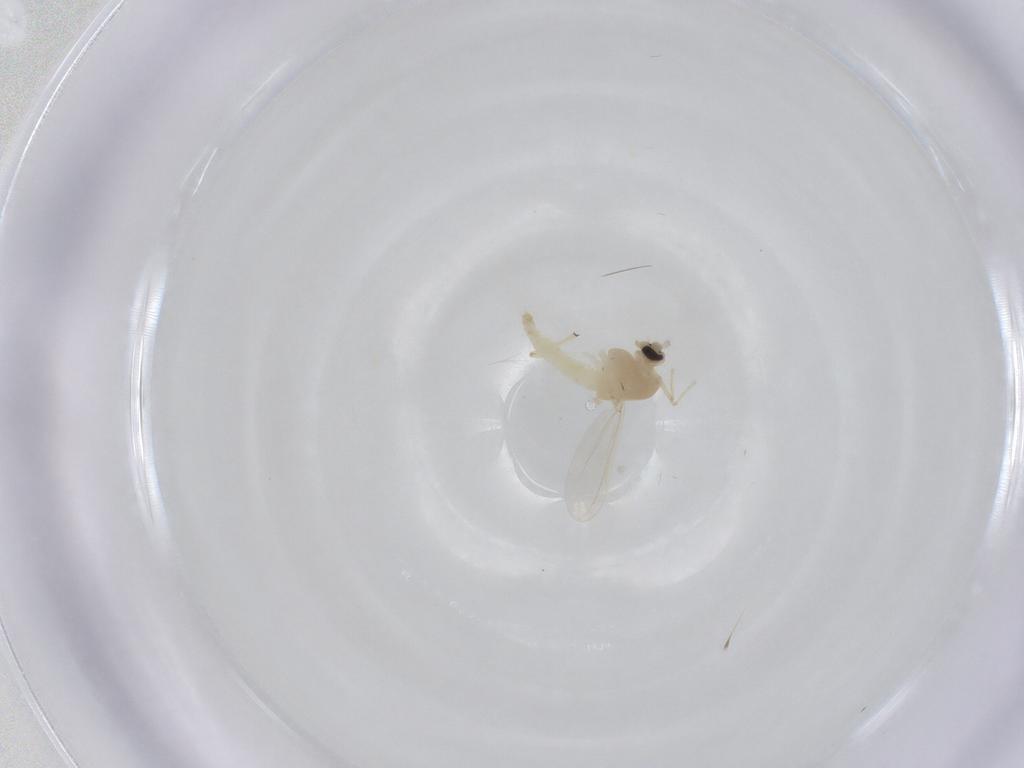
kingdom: Animalia
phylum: Arthropoda
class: Insecta
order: Diptera
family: Chironomidae
